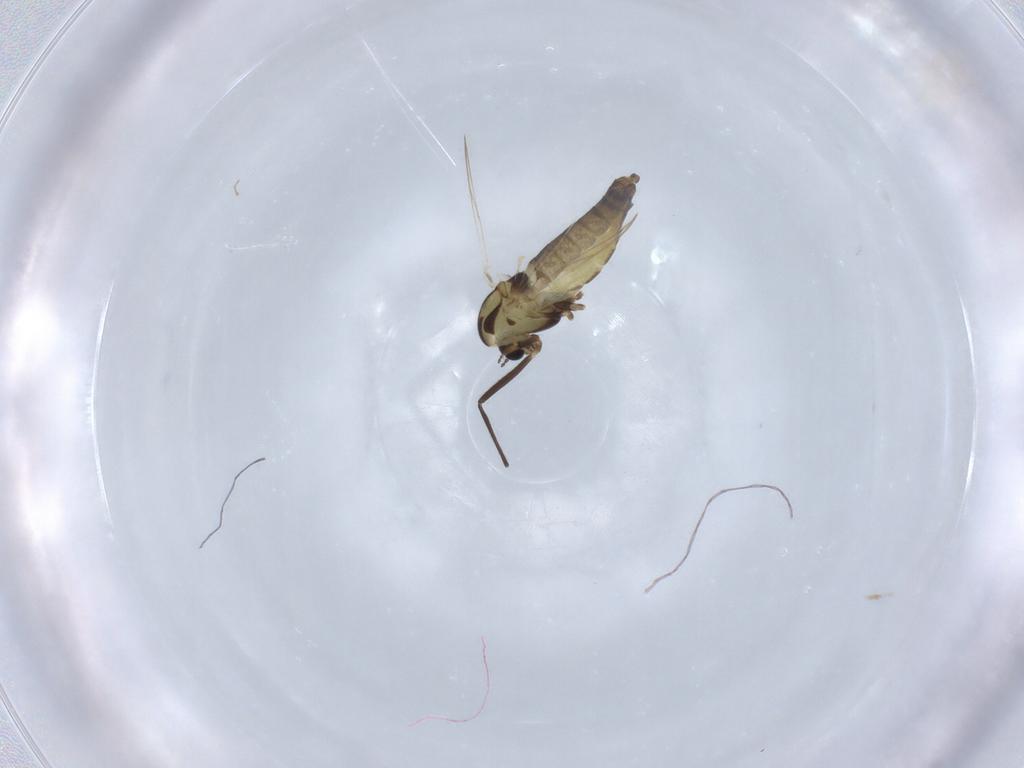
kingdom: Animalia
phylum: Arthropoda
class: Insecta
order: Diptera
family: Chironomidae
